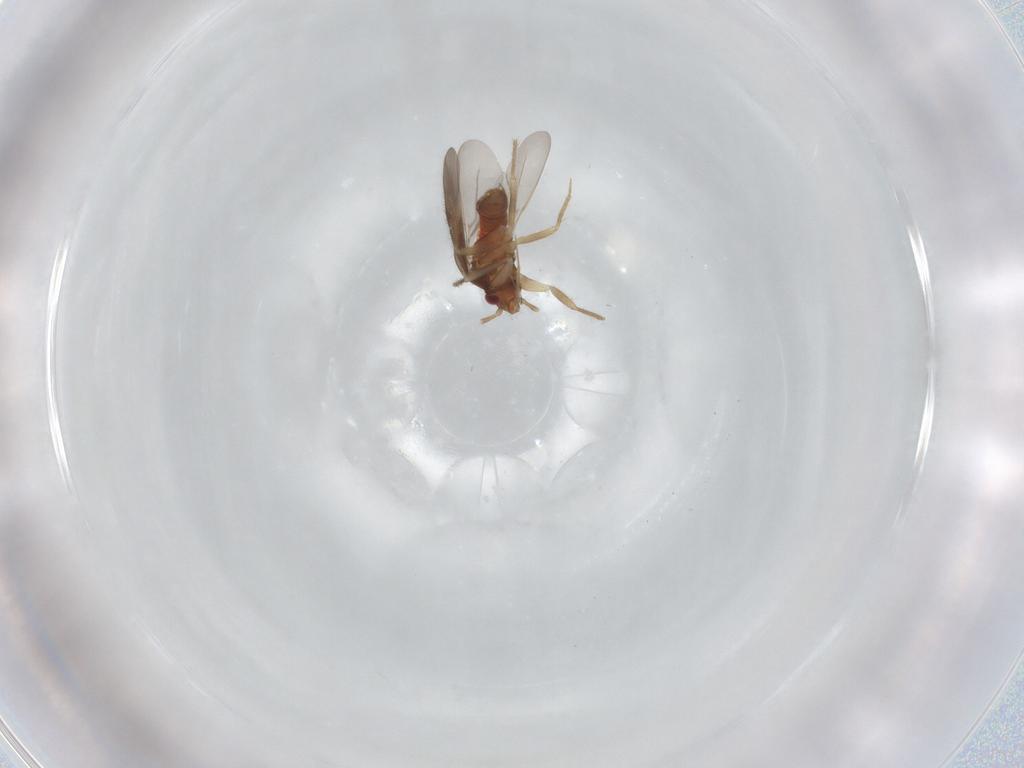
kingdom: Animalia
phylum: Arthropoda
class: Insecta
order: Hemiptera
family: Ceratocombidae
